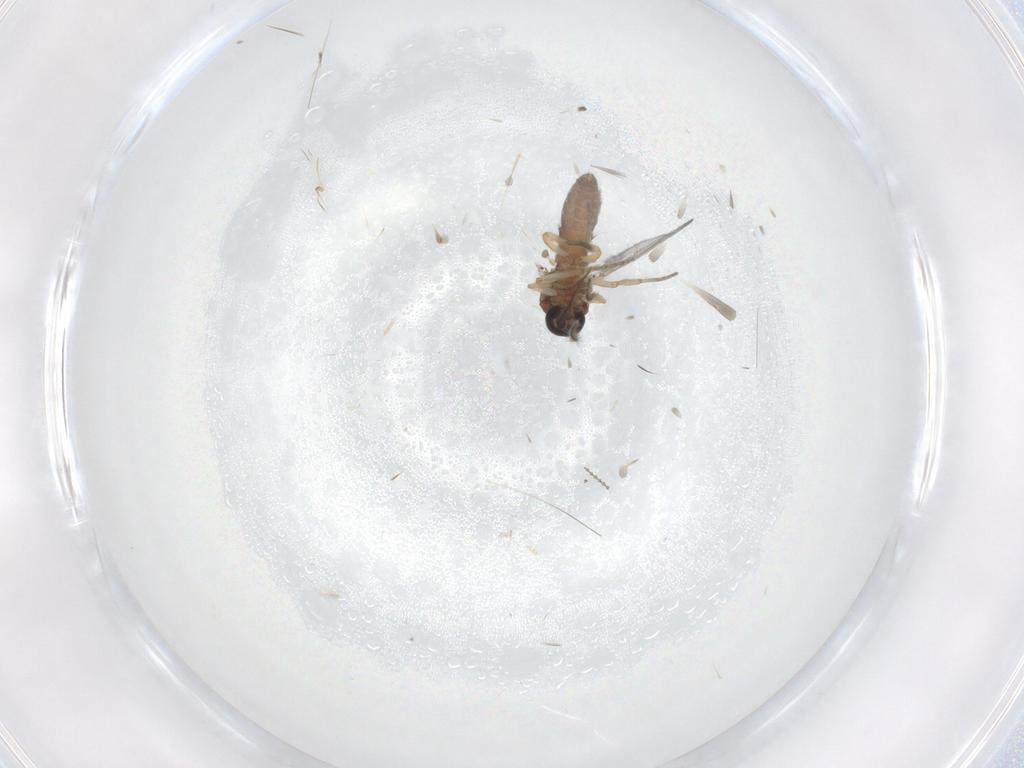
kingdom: Animalia
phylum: Arthropoda
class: Insecta
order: Diptera
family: Ceratopogonidae
